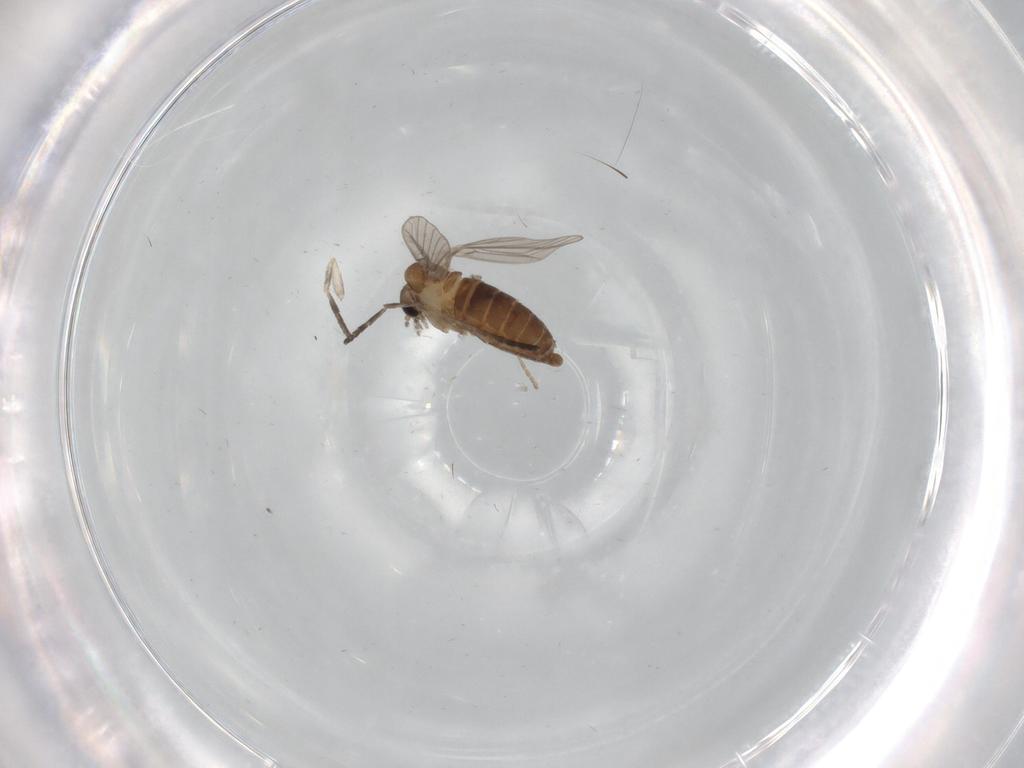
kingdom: Animalia
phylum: Arthropoda
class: Insecta
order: Diptera
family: Psychodidae
